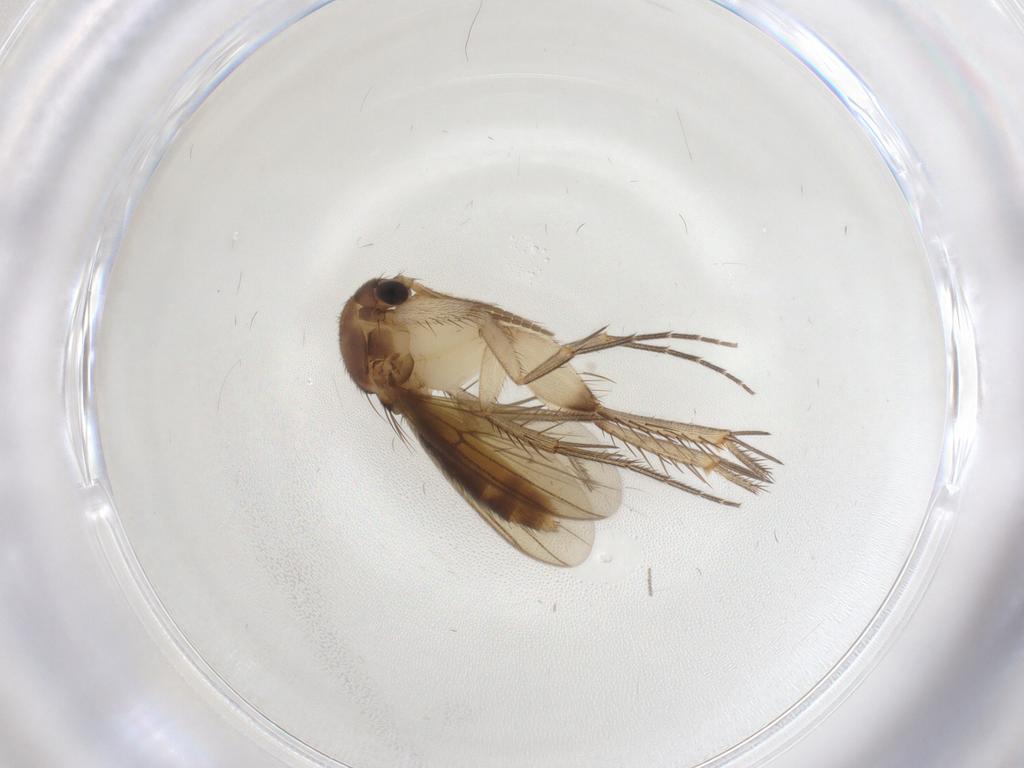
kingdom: Animalia
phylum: Arthropoda
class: Insecta
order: Diptera
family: Mycetophilidae
